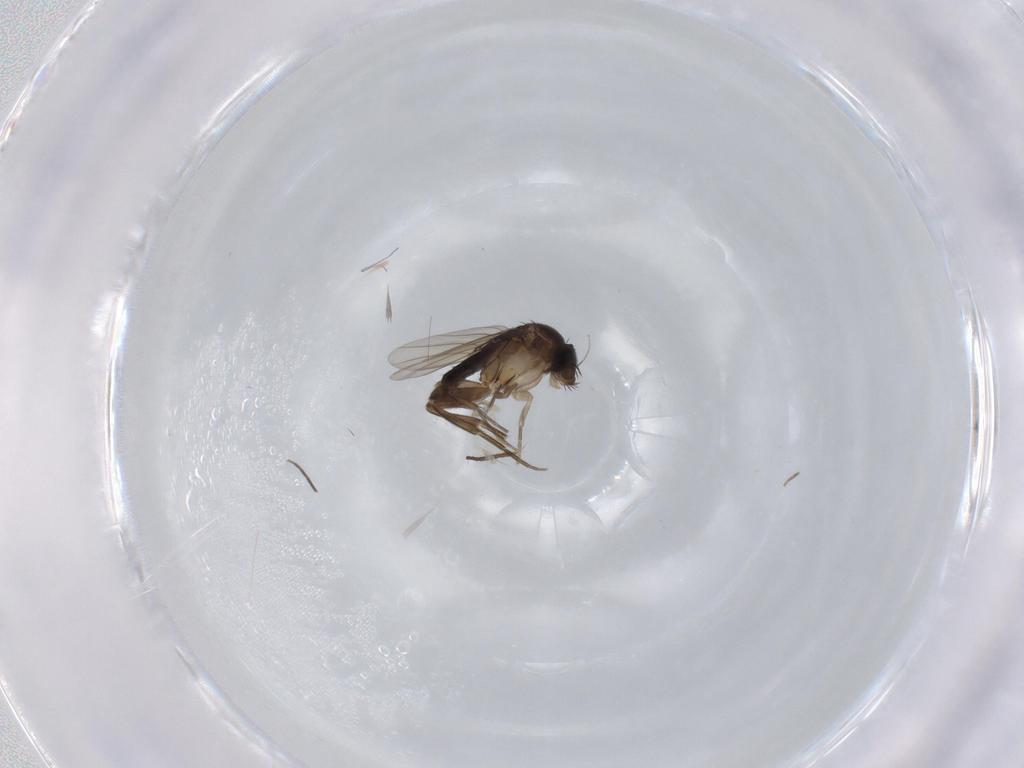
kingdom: Animalia
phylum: Arthropoda
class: Insecta
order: Diptera
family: Phoridae
